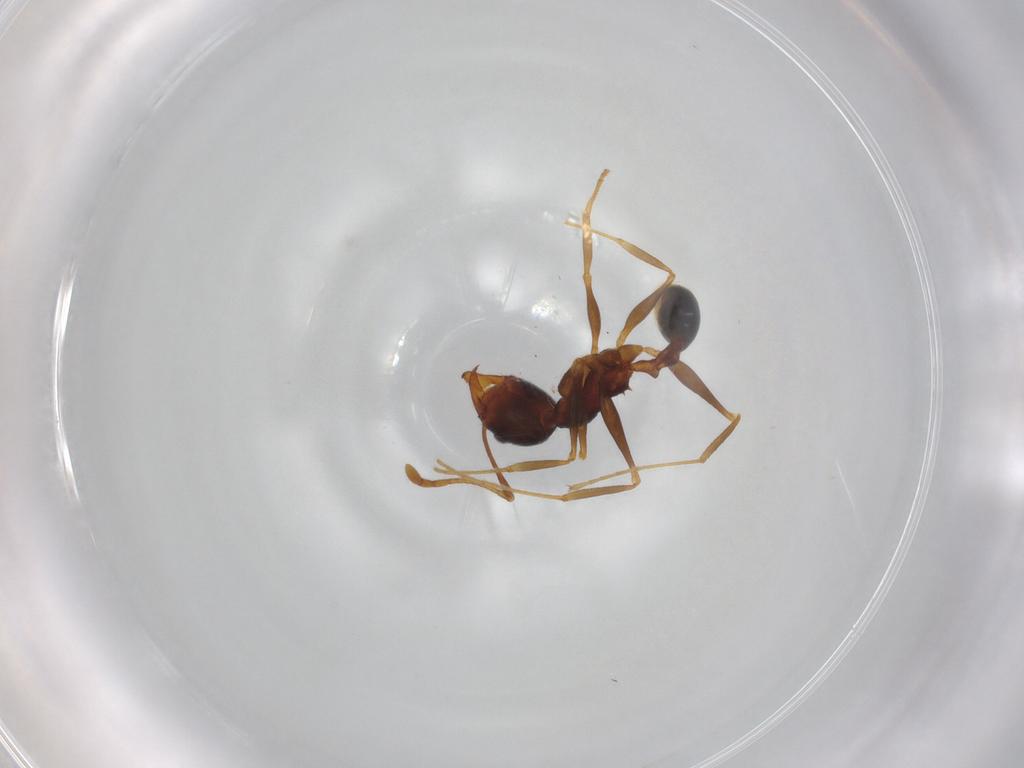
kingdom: Animalia
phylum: Arthropoda
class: Insecta
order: Hymenoptera
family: Formicidae
